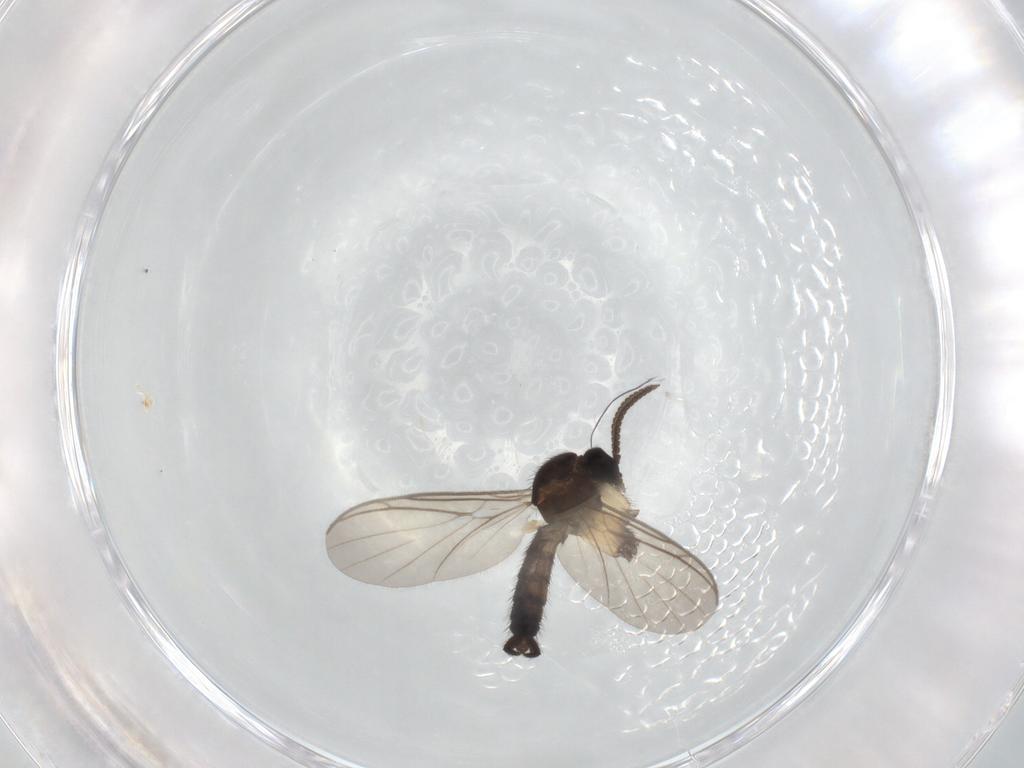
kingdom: Animalia
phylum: Arthropoda
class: Insecta
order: Diptera
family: Keroplatidae
